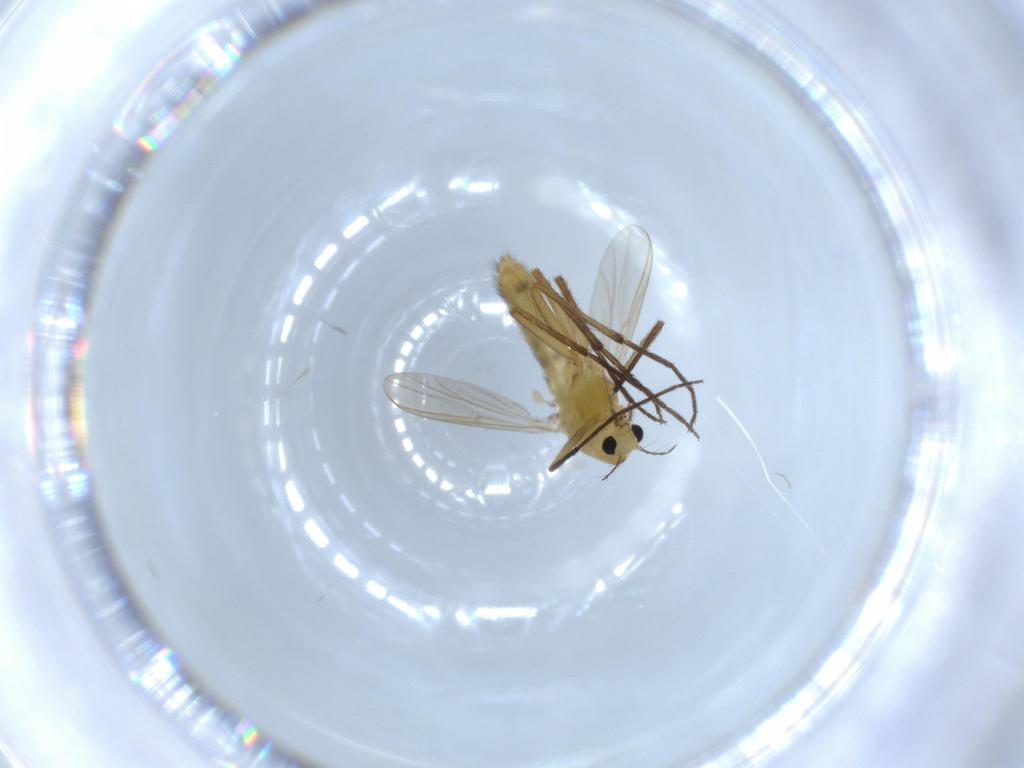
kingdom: Animalia
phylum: Arthropoda
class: Insecta
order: Diptera
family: Chironomidae
